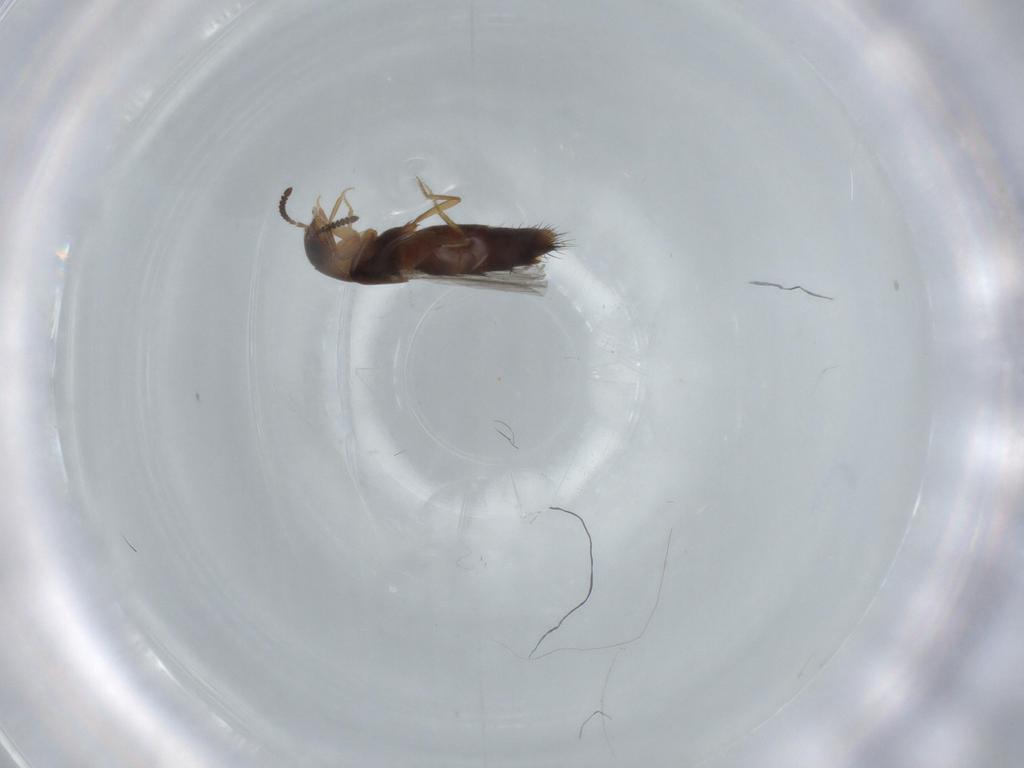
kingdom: Animalia
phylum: Arthropoda
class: Insecta
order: Coleoptera
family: Staphylinidae
